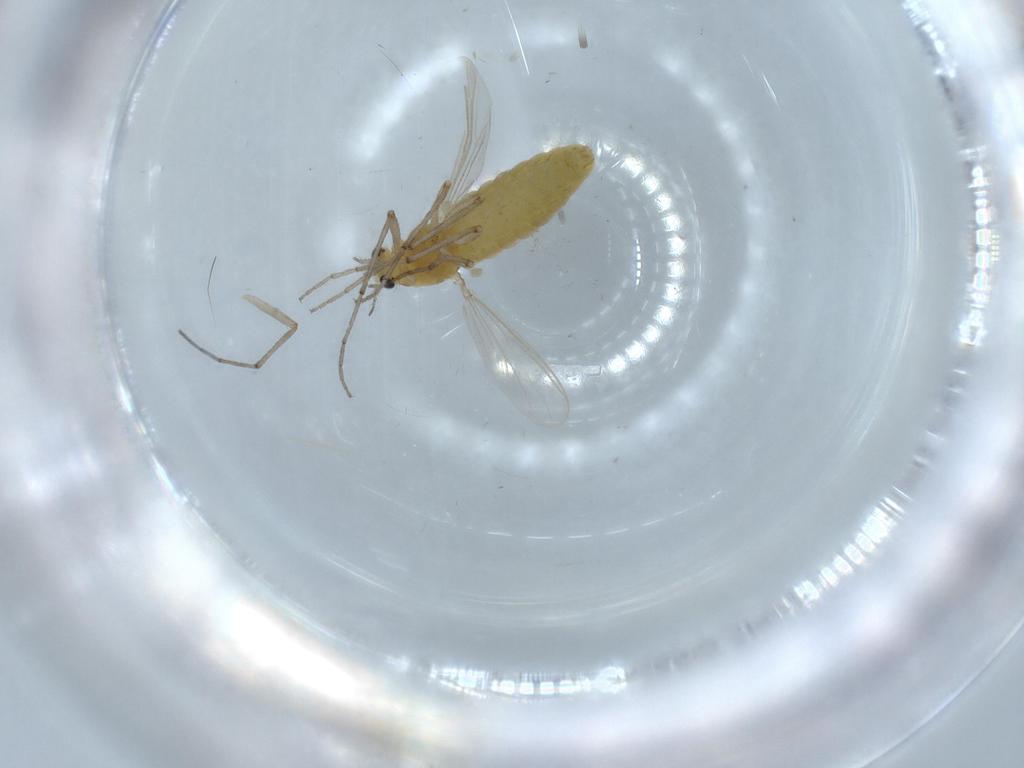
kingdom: Animalia
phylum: Arthropoda
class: Insecta
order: Diptera
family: Chironomidae
